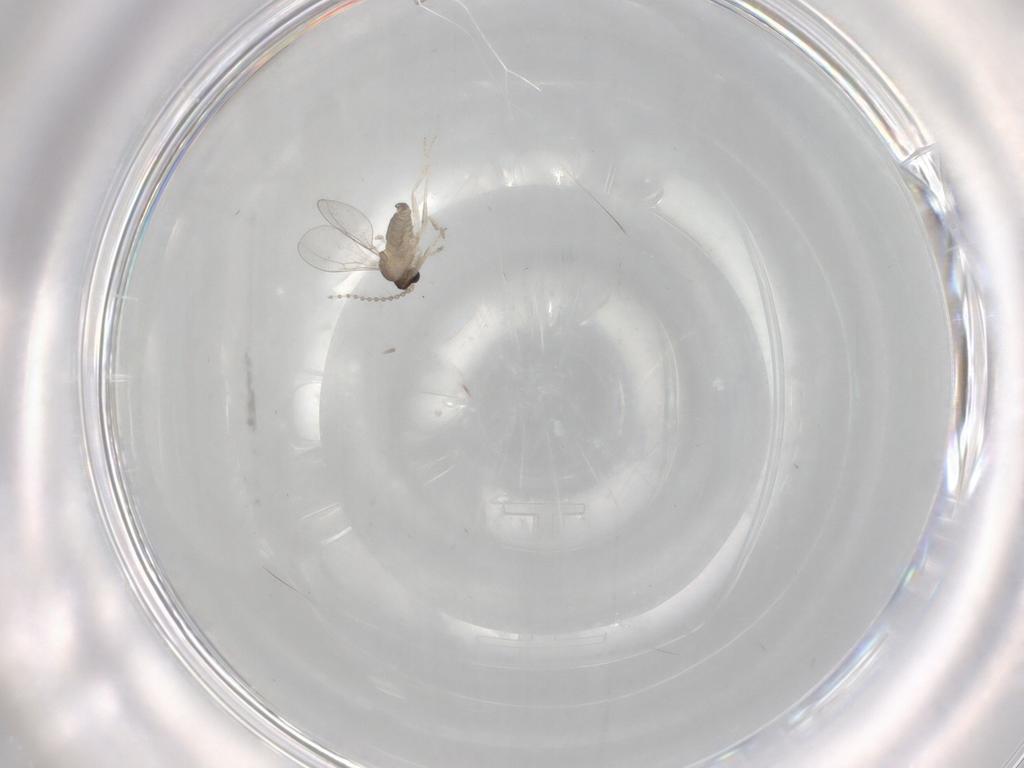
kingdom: Animalia
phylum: Arthropoda
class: Insecta
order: Diptera
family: Cecidomyiidae
